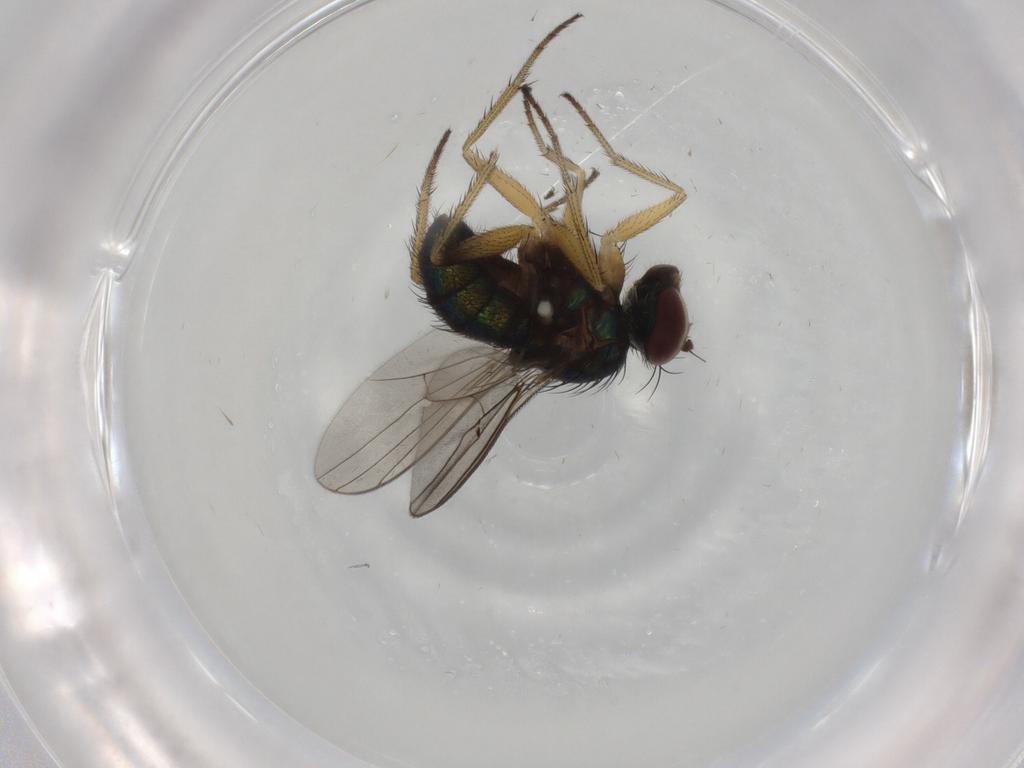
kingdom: Animalia
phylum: Arthropoda
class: Insecta
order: Diptera
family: Dolichopodidae
